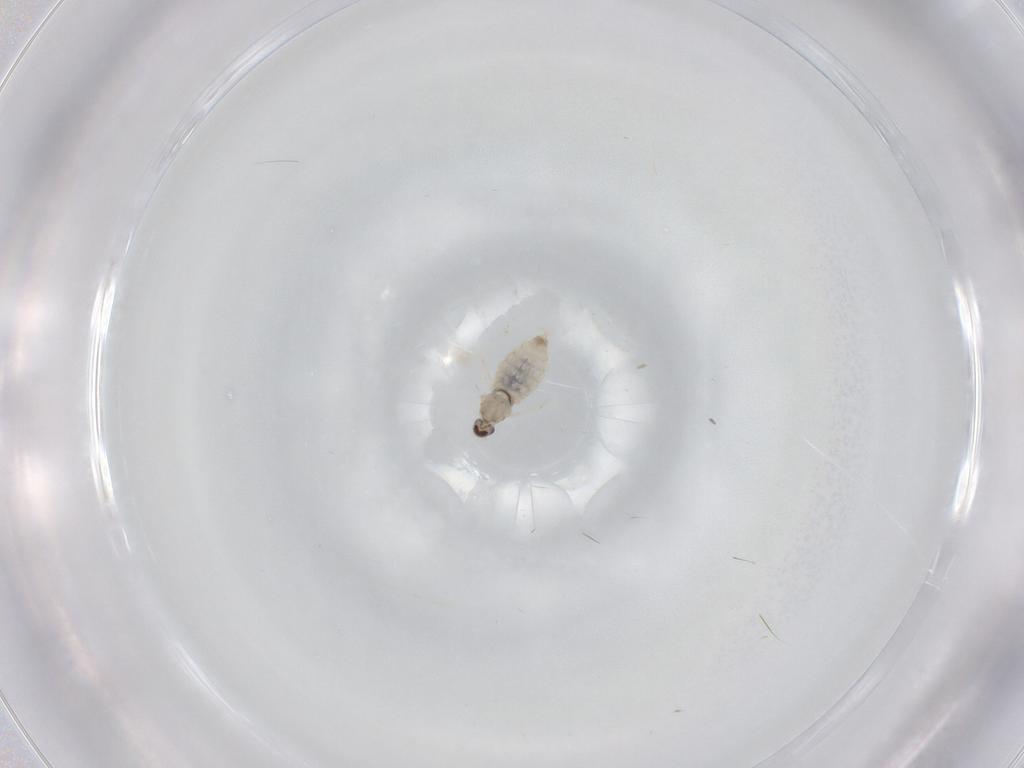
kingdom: Animalia
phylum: Arthropoda
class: Insecta
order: Diptera
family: Cecidomyiidae
